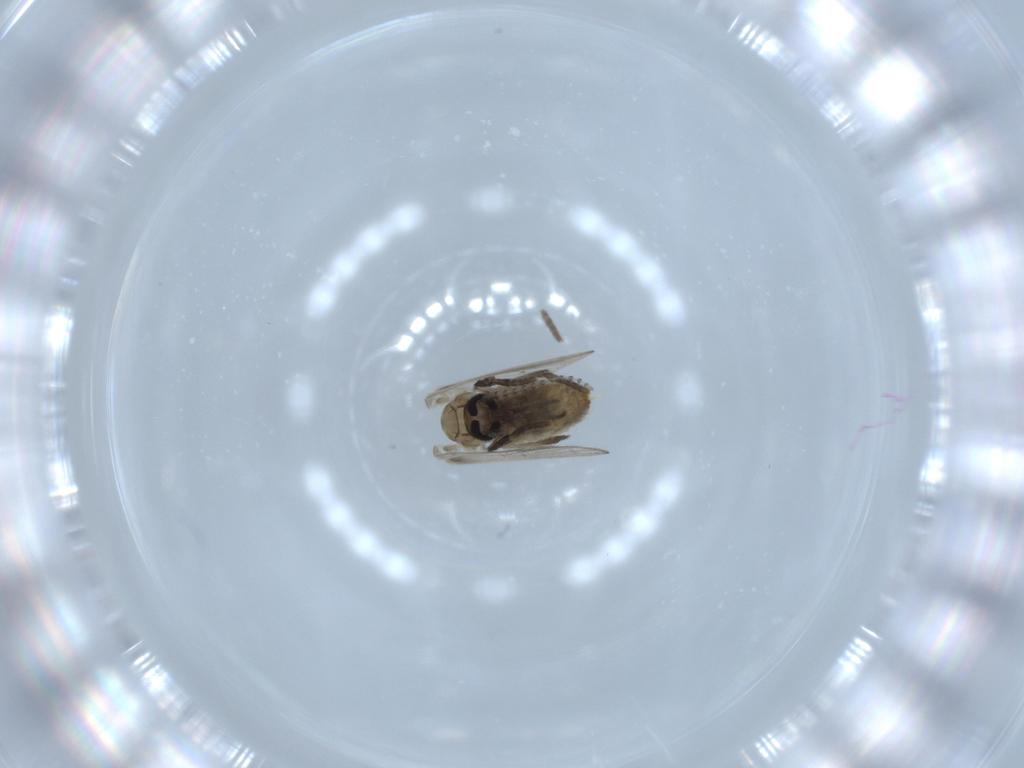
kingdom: Animalia
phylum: Arthropoda
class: Insecta
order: Diptera
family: Psychodidae
